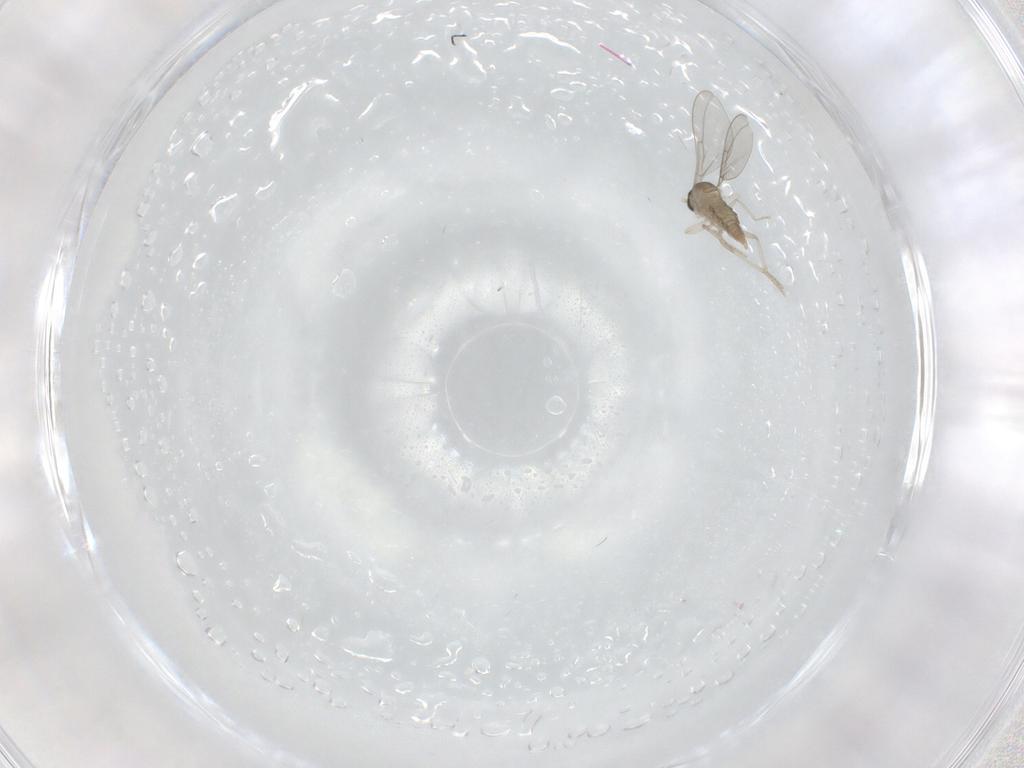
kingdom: Animalia
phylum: Arthropoda
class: Insecta
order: Diptera
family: Cecidomyiidae
